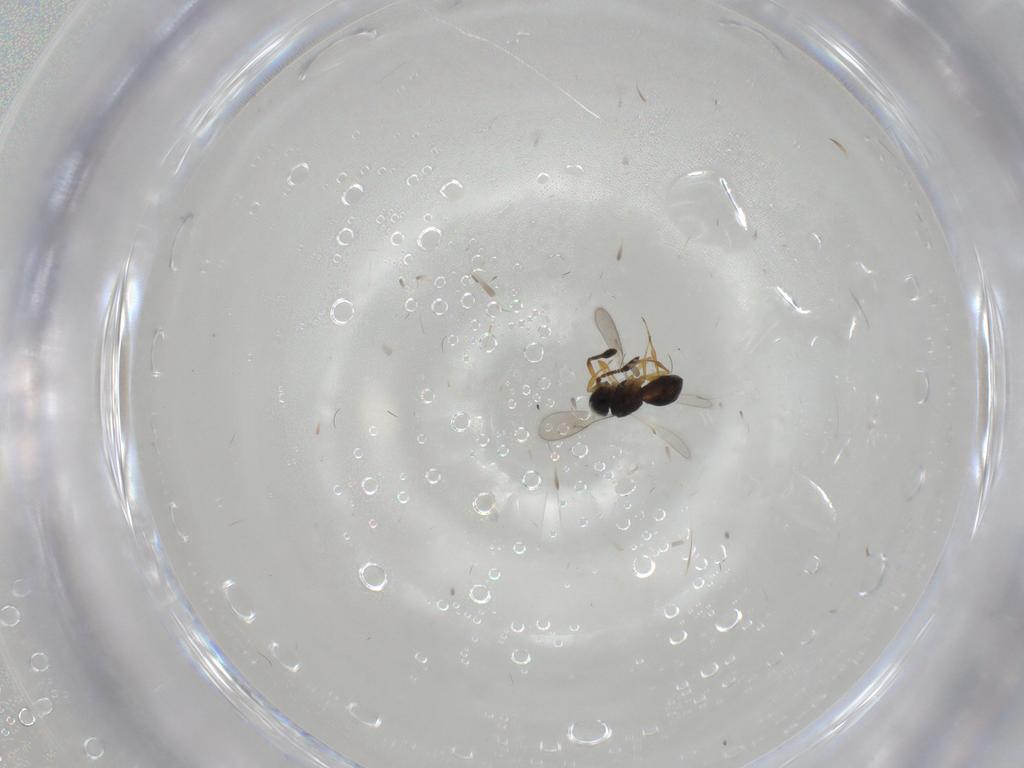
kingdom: Animalia
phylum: Arthropoda
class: Insecta
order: Hymenoptera
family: Scelionidae
